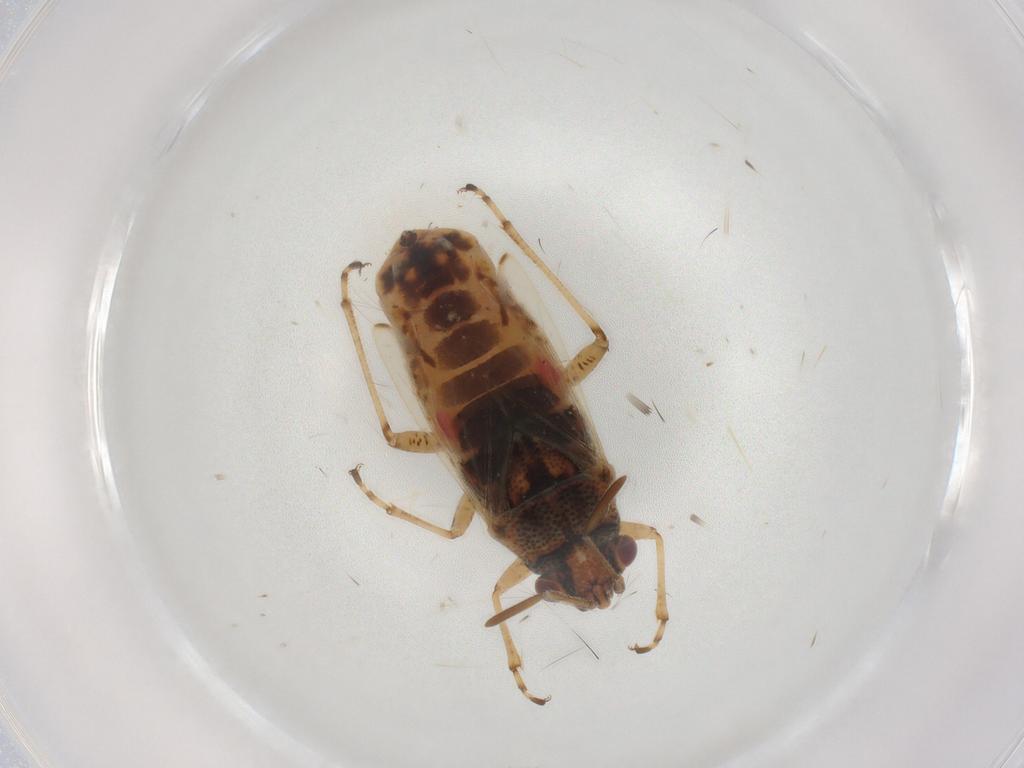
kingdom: Animalia
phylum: Arthropoda
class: Insecta
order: Hemiptera
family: Lygaeidae
